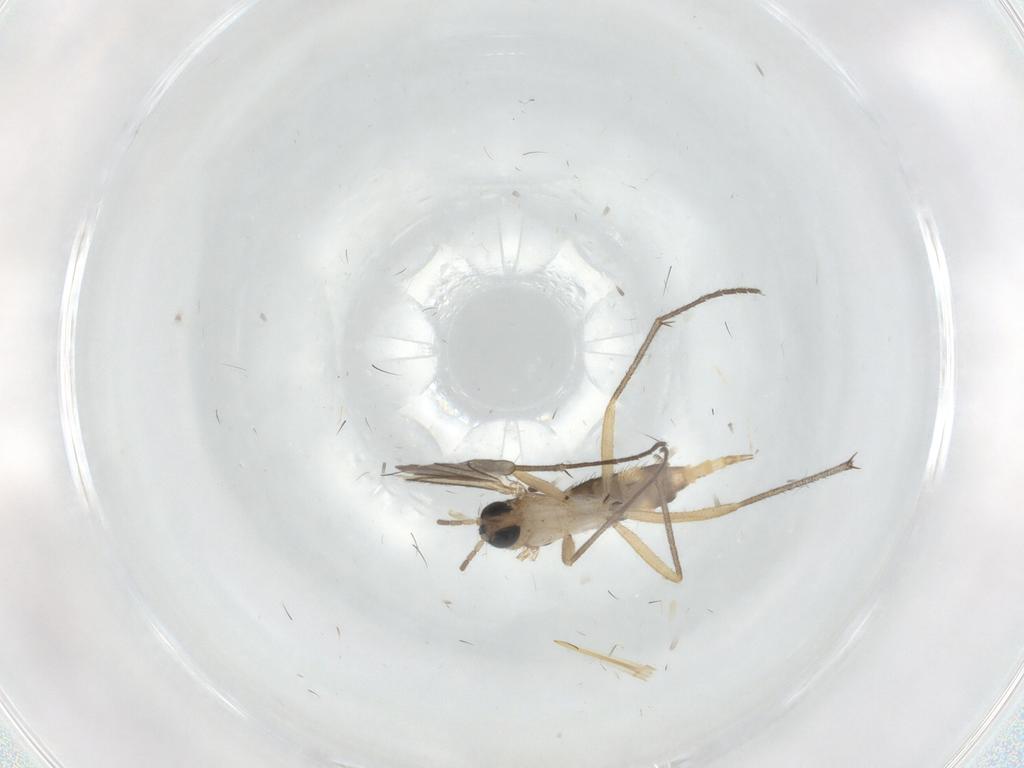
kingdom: Animalia
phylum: Arthropoda
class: Insecta
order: Diptera
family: Sciaridae
